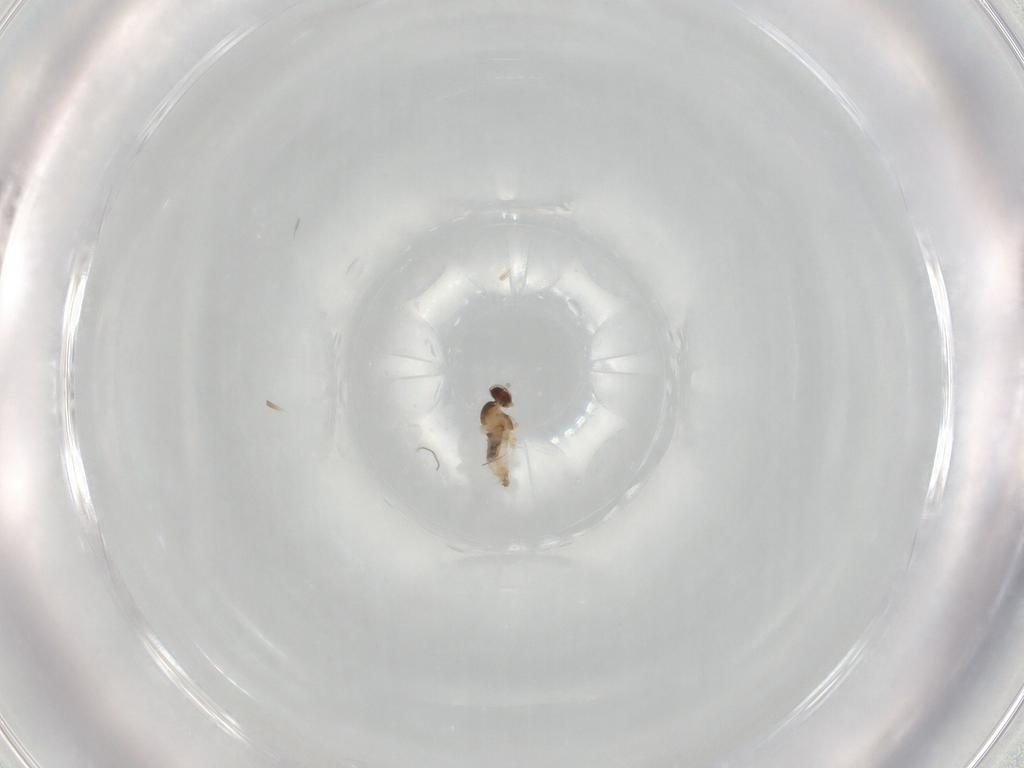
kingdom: Animalia
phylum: Arthropoda
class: Insecta
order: Diptera
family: Cecidomyiidae
